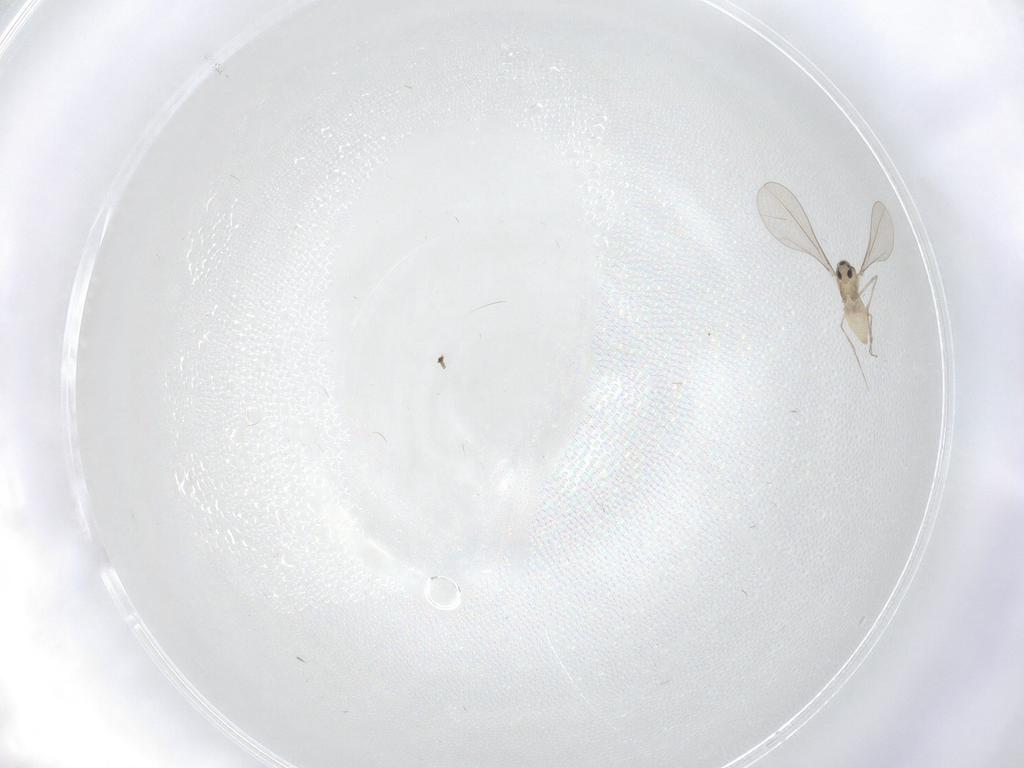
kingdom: Animalia
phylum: Arthropoda
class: Insecta
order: Diptera
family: Cecidomyiidae
